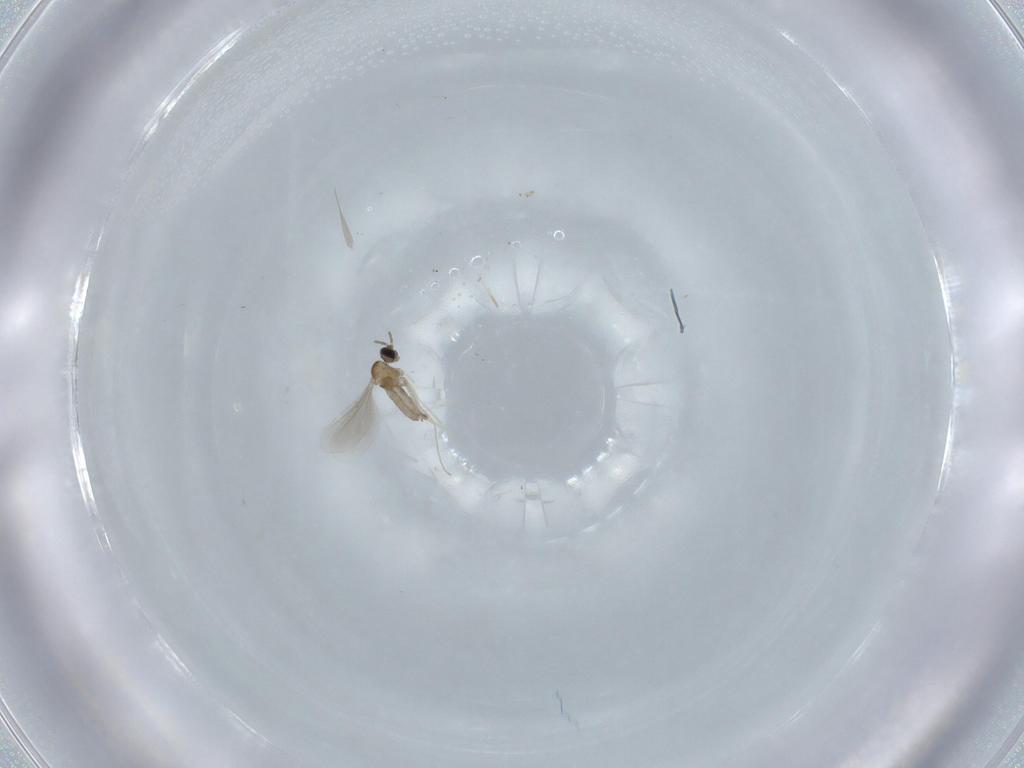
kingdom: Animalia
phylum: Arthropoda
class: Insecta
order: Diptera
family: Cecidomyiidae
